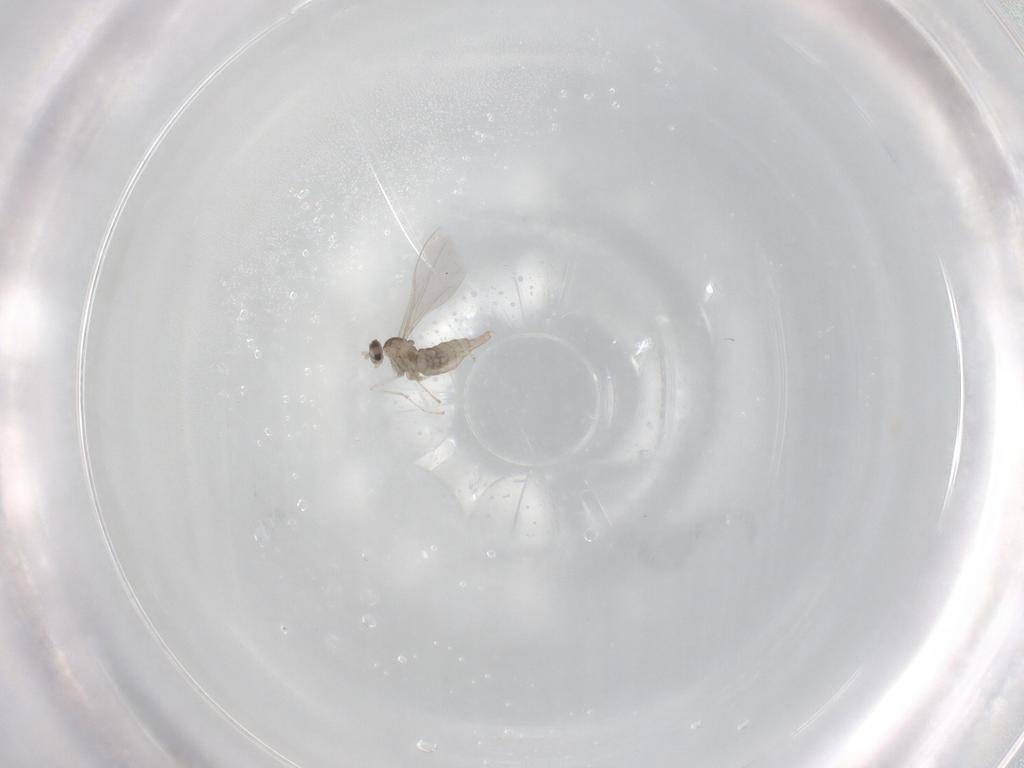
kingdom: Animalia
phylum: Arthropoda
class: Insecta
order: Diptera
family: Cecidomyiidae
